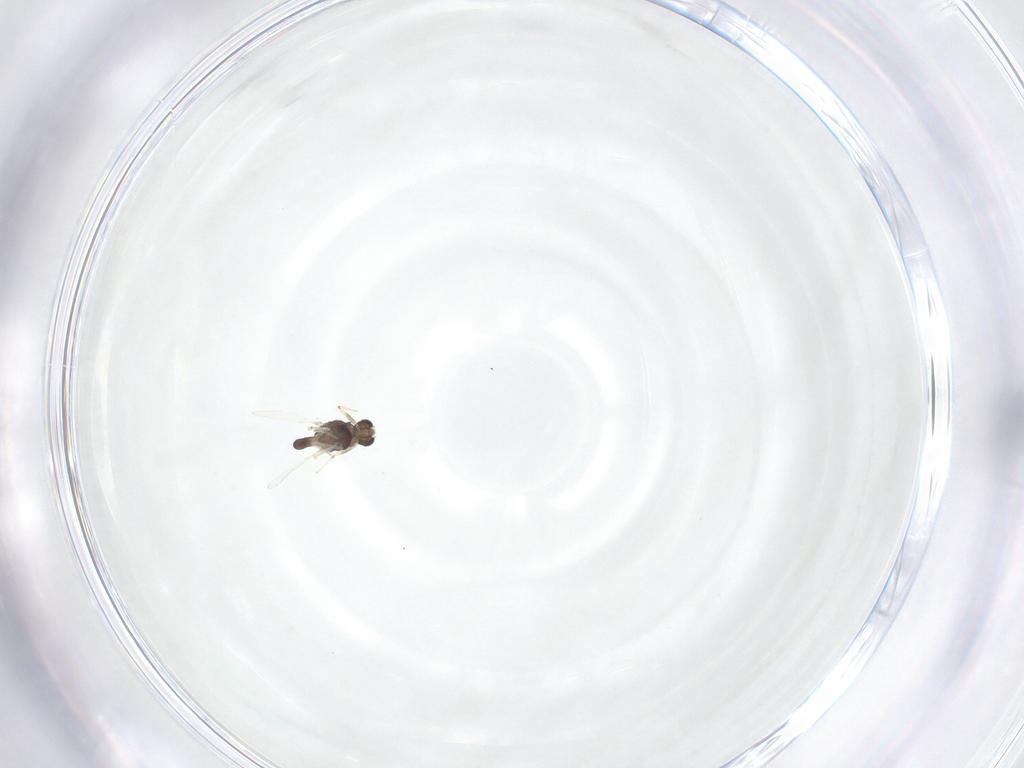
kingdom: Animalia
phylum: Arthropoda
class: Insecta
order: Diptera
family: Chironomidae
